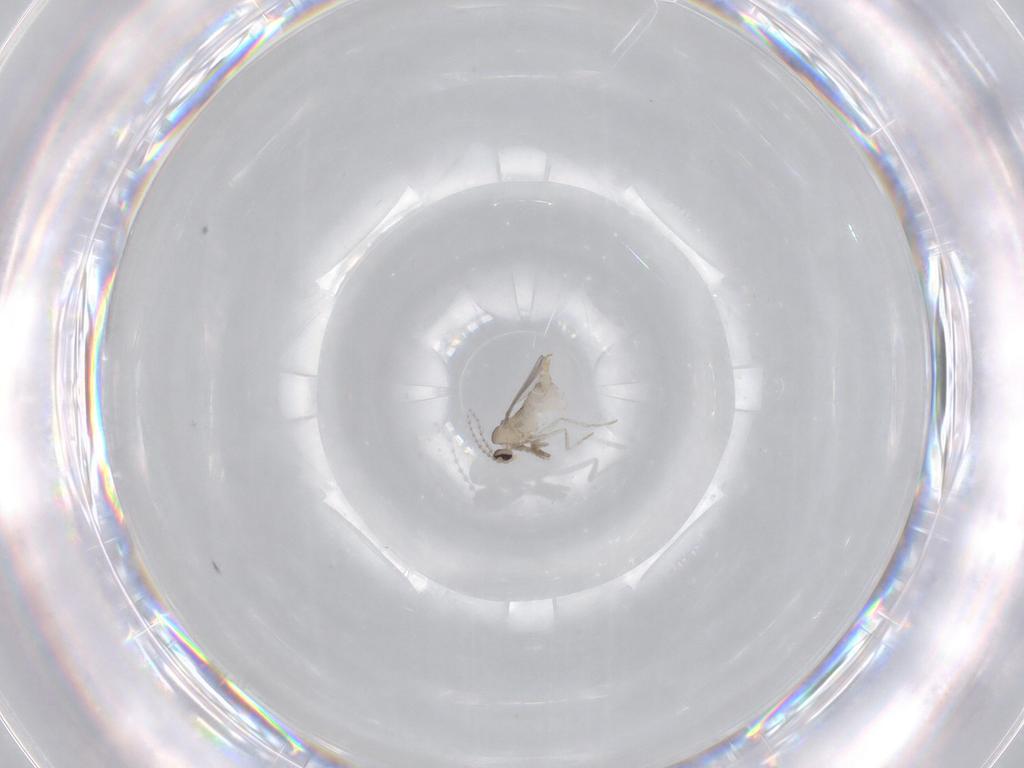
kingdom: Animalia
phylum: Arthropoda
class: Insecta
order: Diptera
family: Cecidomyiidae
